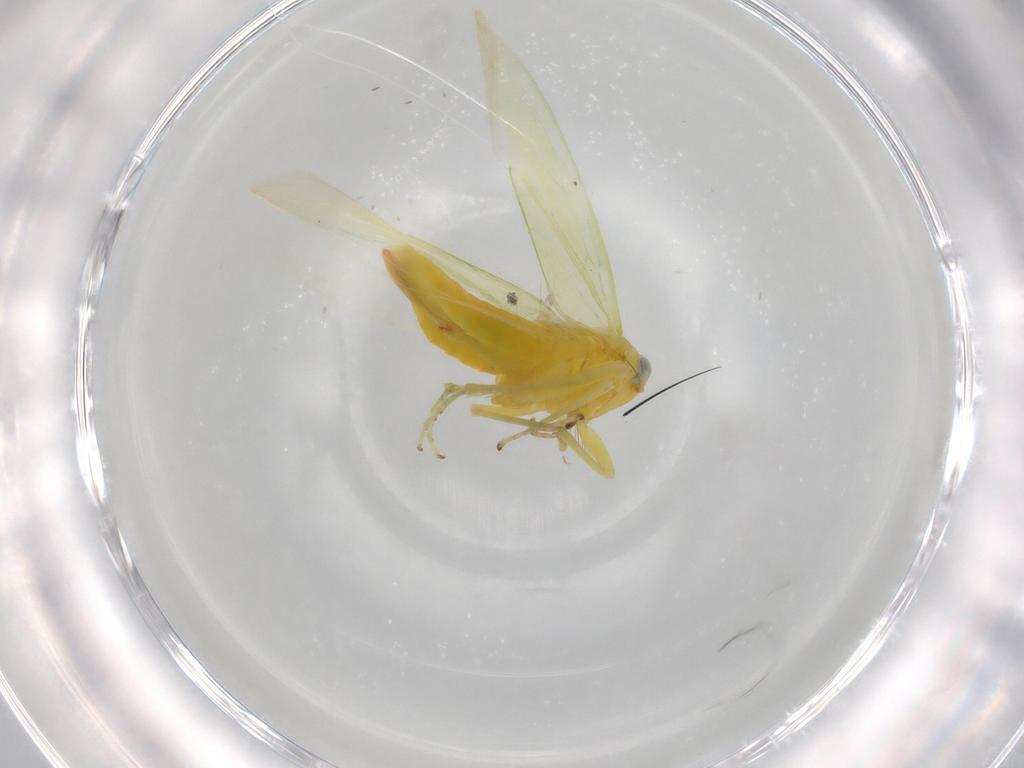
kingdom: Animalia
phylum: Arthropoda
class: Insecta
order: Hemiptera
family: Cicadellidae
